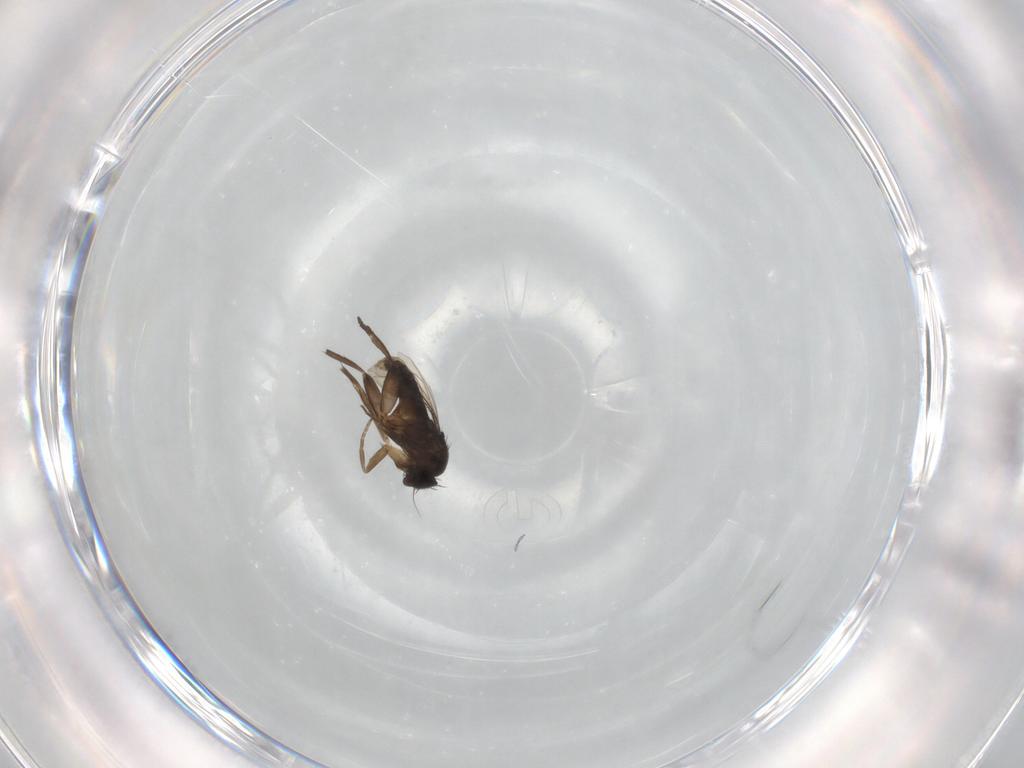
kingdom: Animalia
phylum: Arthropoda
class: Insecta
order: Diptera
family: Phoridae
